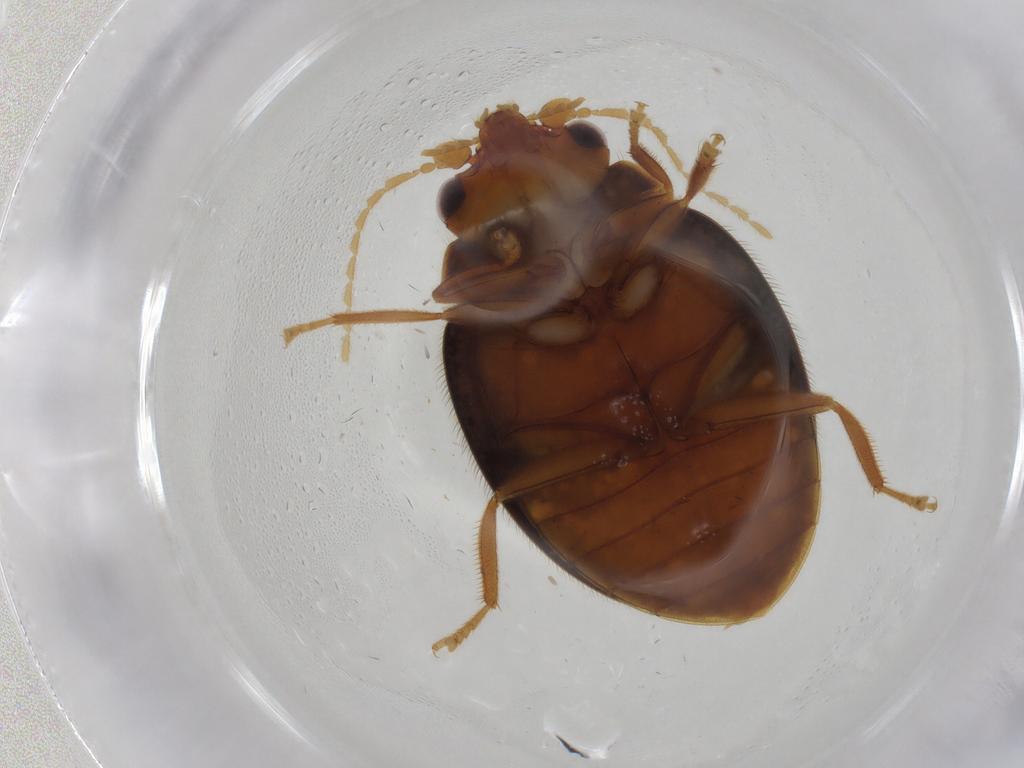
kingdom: Animalia
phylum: Arthropoda
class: Insecta
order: Coleoptera
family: Scirtidae
